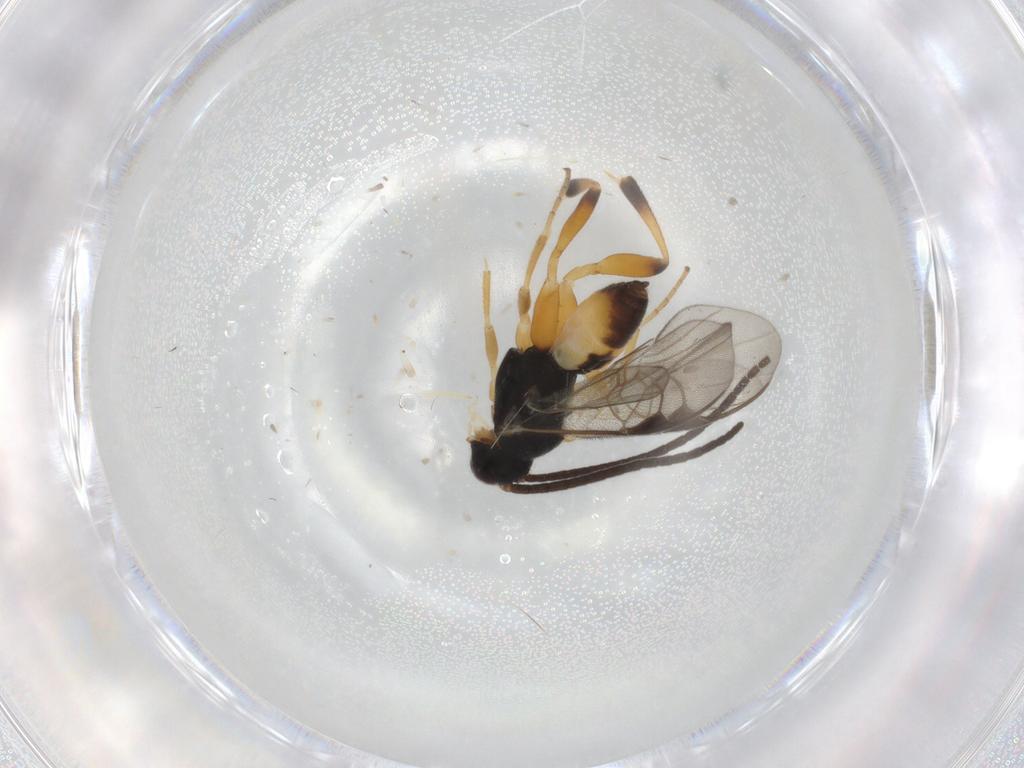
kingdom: Animalia
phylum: Arthropoda
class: Insecta
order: Hymenoptera
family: Braconidae
